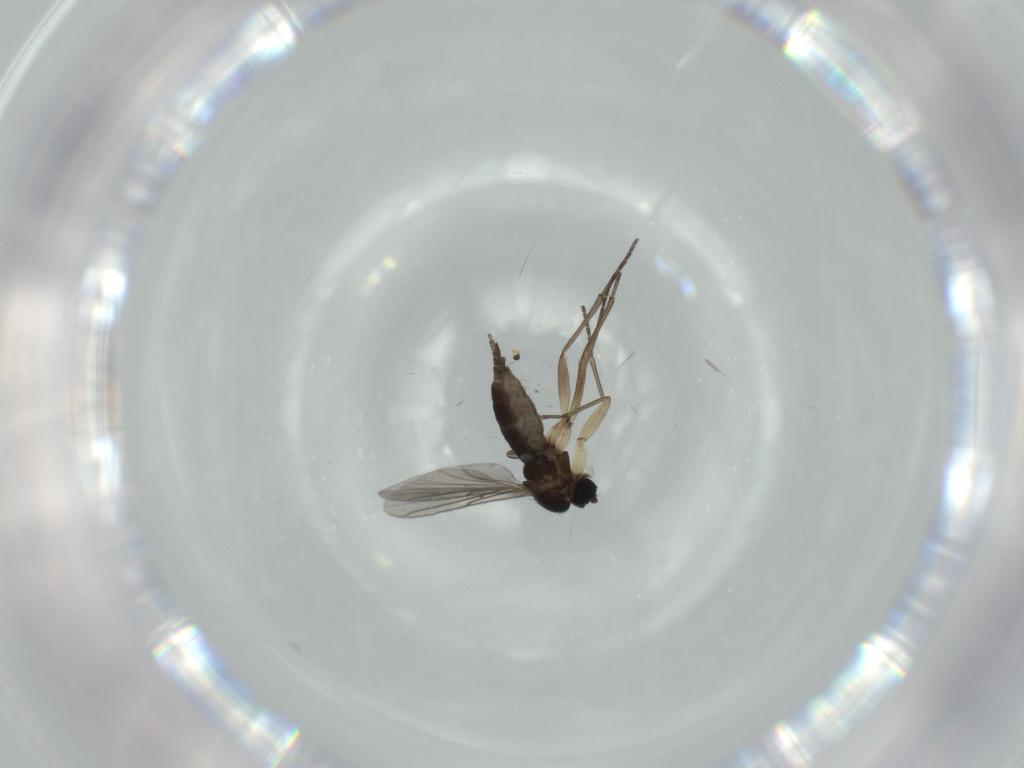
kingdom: Animalia
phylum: Arthropoda
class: Insecta
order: Diptera
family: Sciaridae
